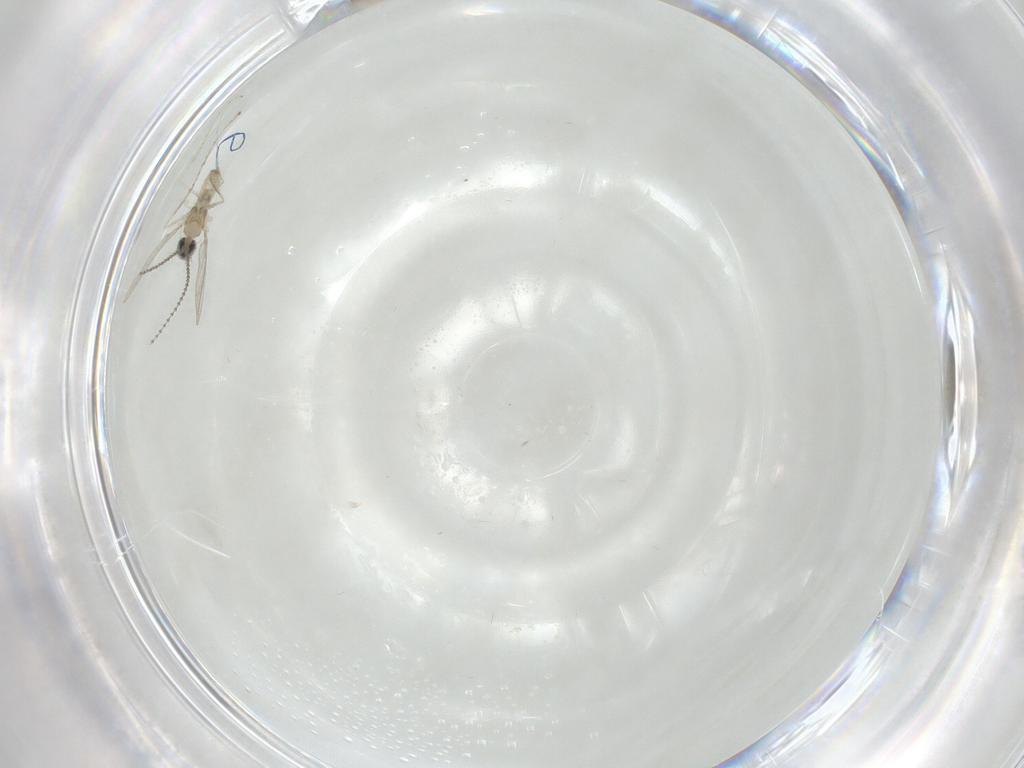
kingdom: Animalia
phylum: Arthropoda
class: Insecta
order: Diptera
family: Cecidomyiidae
